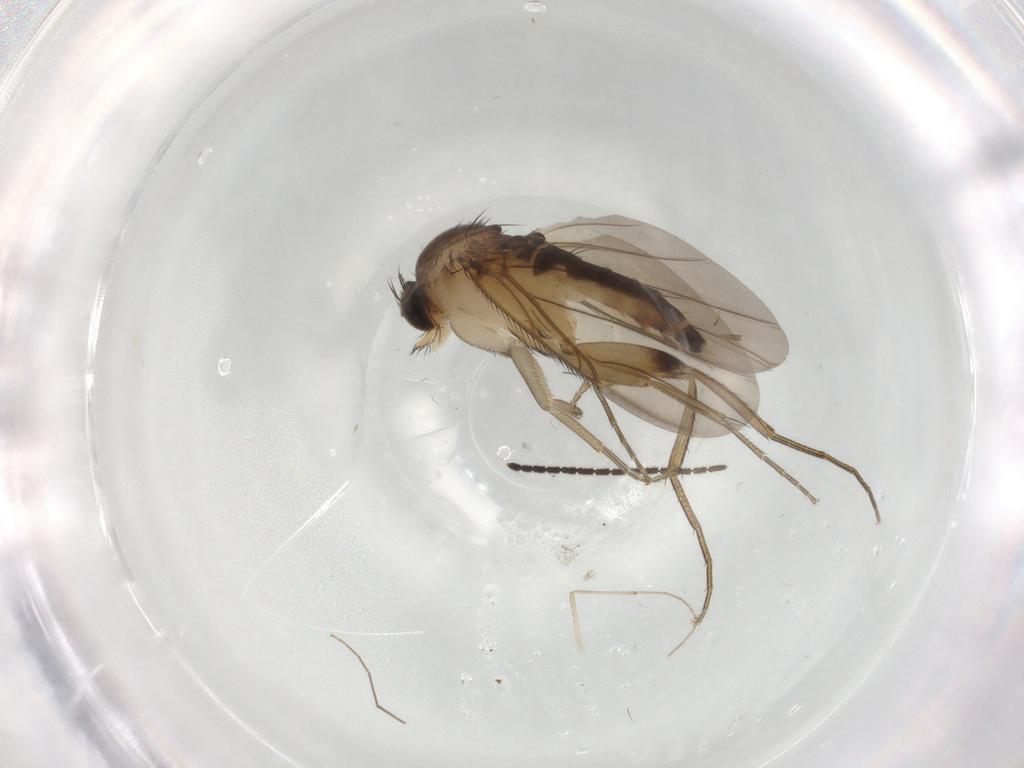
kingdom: Animalia
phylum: Arthropoda
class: Insecta
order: Diptera
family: Phoridae
